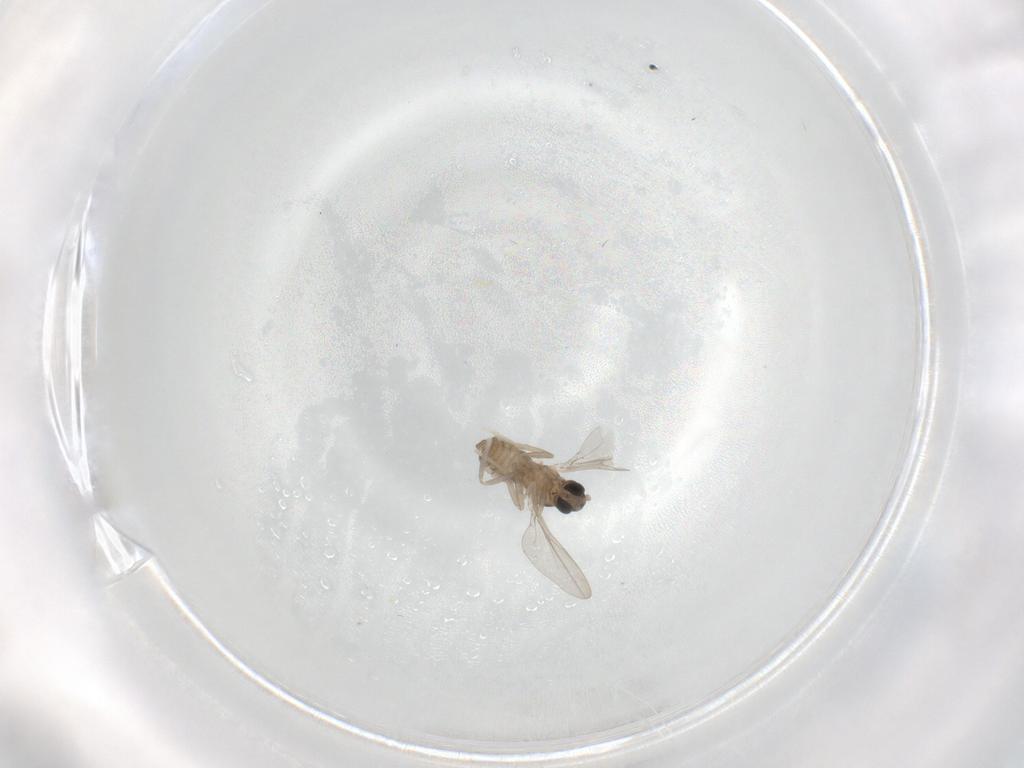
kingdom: Animalia
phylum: Arthropoda
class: Insecta
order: Diptera
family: Cecidomyiidae
